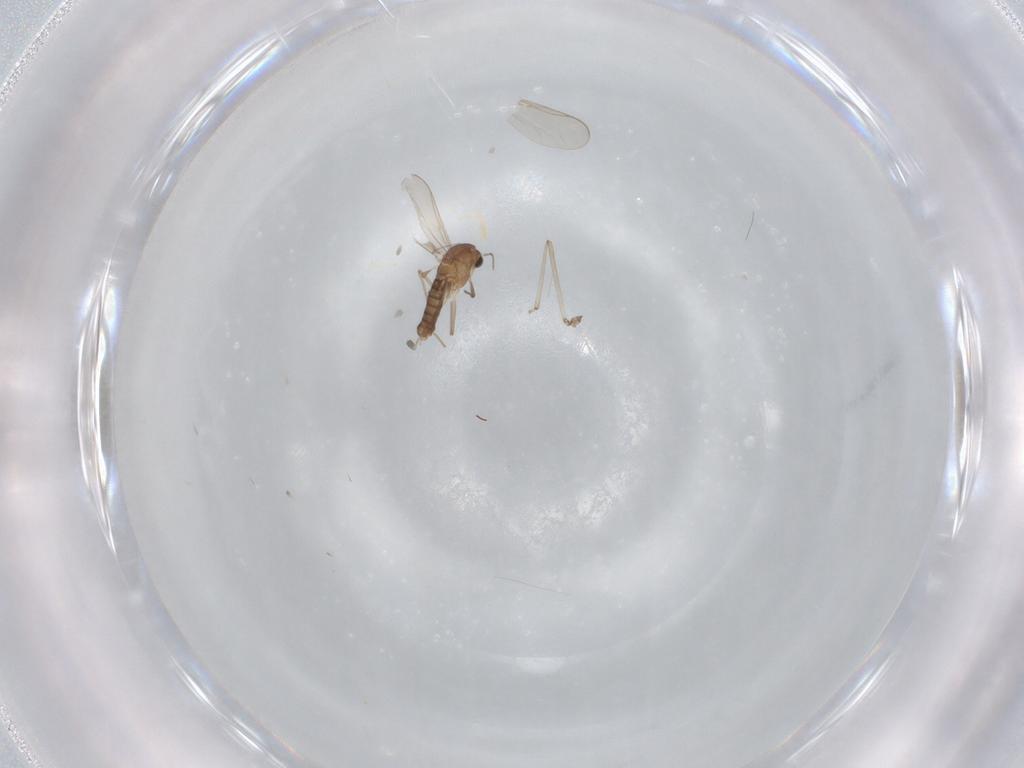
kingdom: Animalia
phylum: Arthropoda
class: Insecta
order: Diptera
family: Chironomidae
